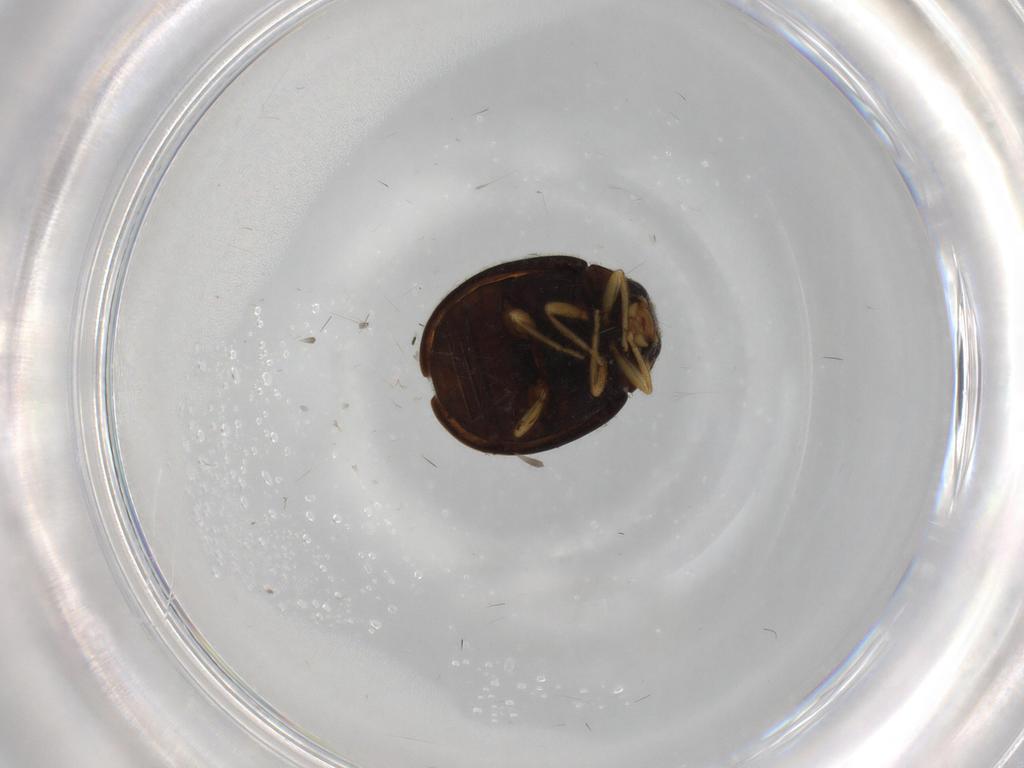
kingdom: Animalia
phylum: Arthropoda
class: Insecta
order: Coleoptera
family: Coccinellidae
